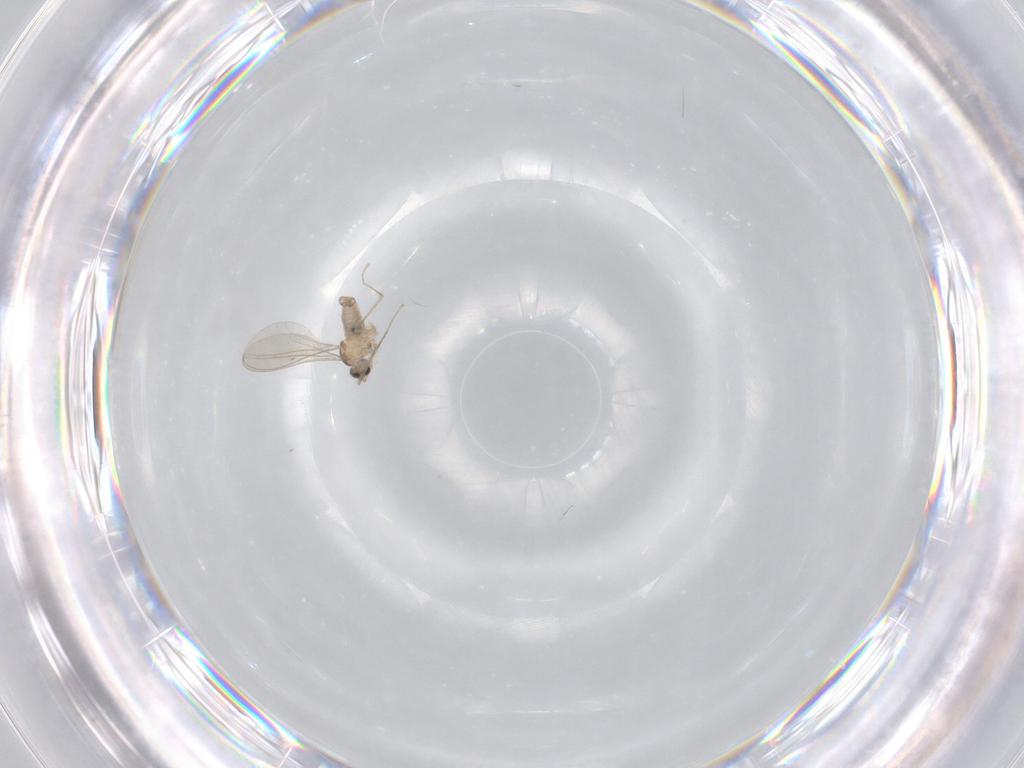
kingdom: Animalia
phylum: Arthropoda
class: Insecta
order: Diptera
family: Cecidomyiidae
